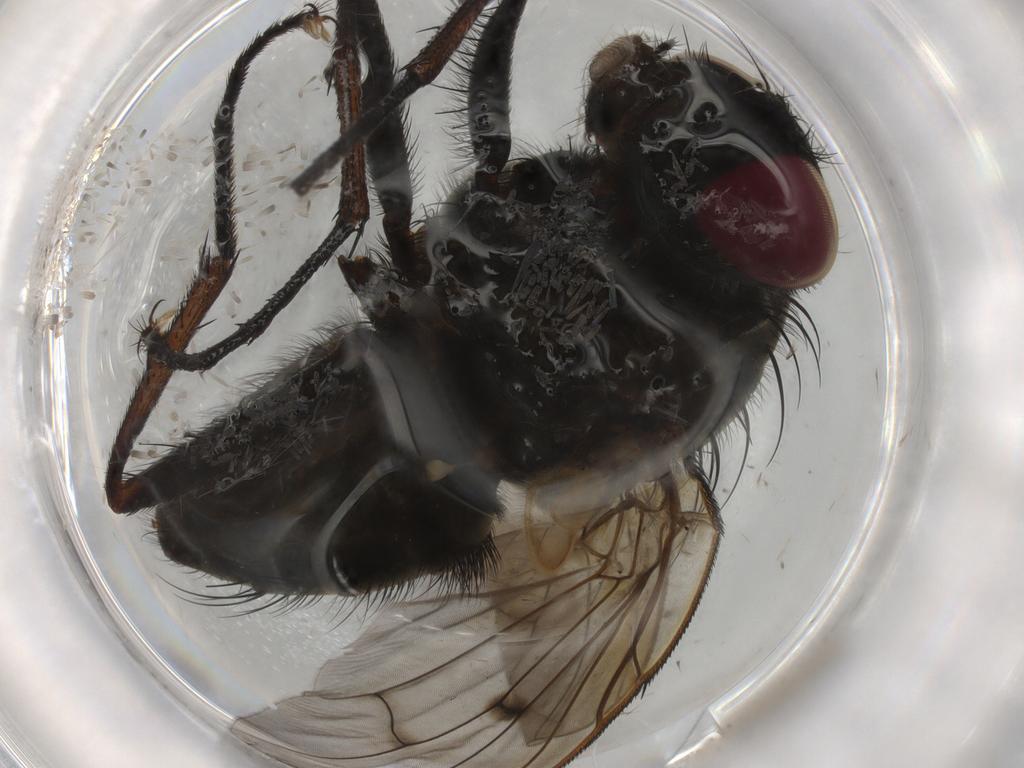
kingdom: Animalia
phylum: Arthropoda
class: Insecta
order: Diptera
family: Muscidae
